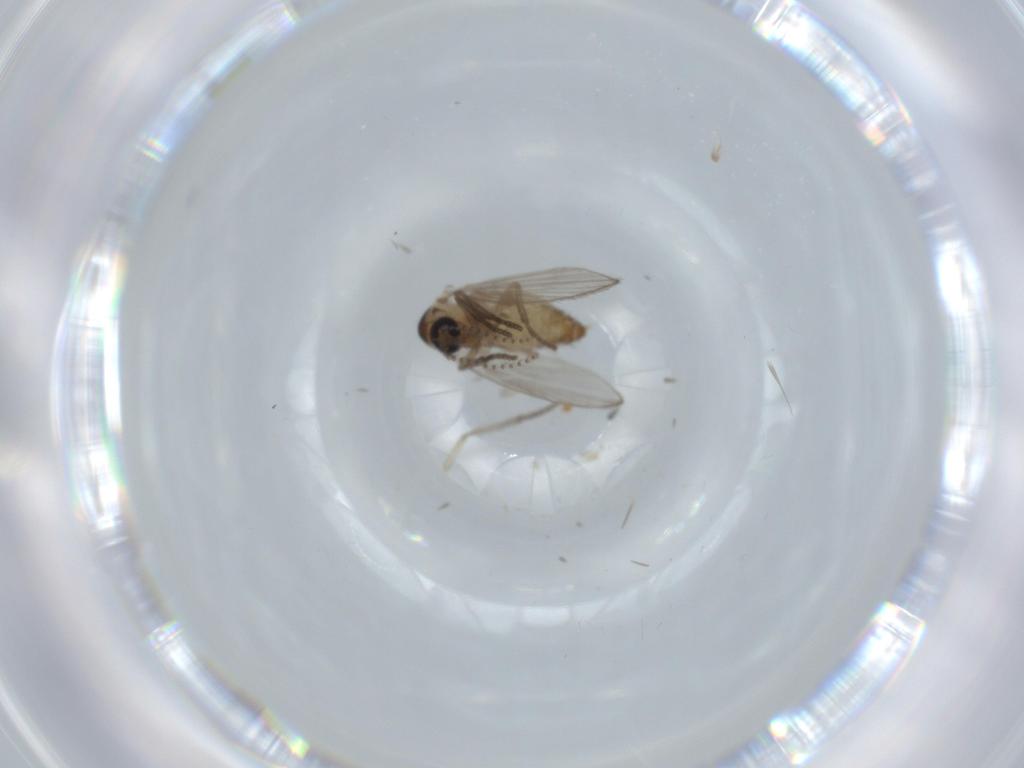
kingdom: Animalia
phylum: Arthropoda
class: Insecta
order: Diptera
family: Psychodidae
